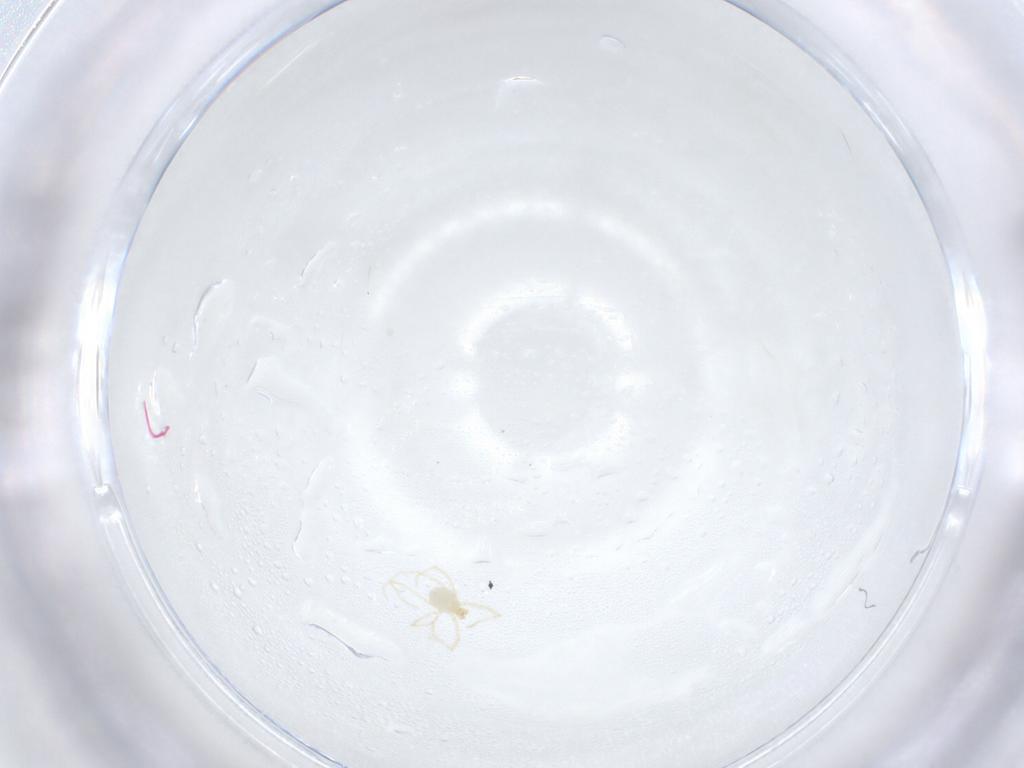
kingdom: Animalia
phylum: Arthropoda
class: Arachnida
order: Trombidiformes
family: Erythraeidae
